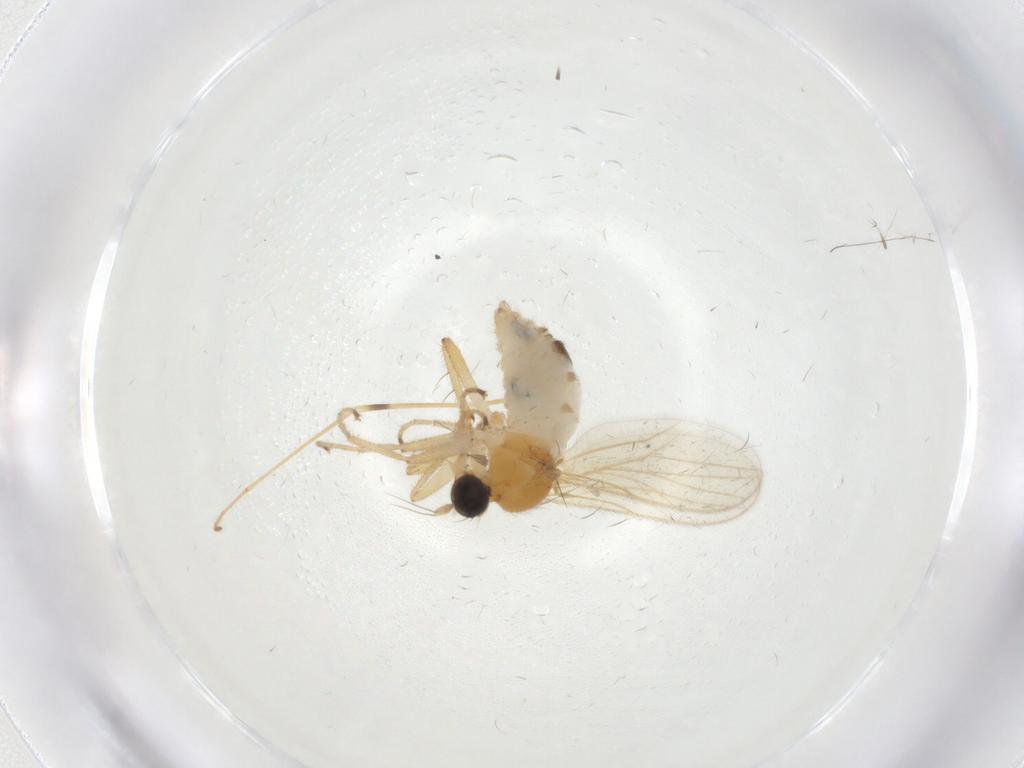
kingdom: Animalia
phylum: Arthropoda
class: Insecta
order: Diptera
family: Hybotidae
